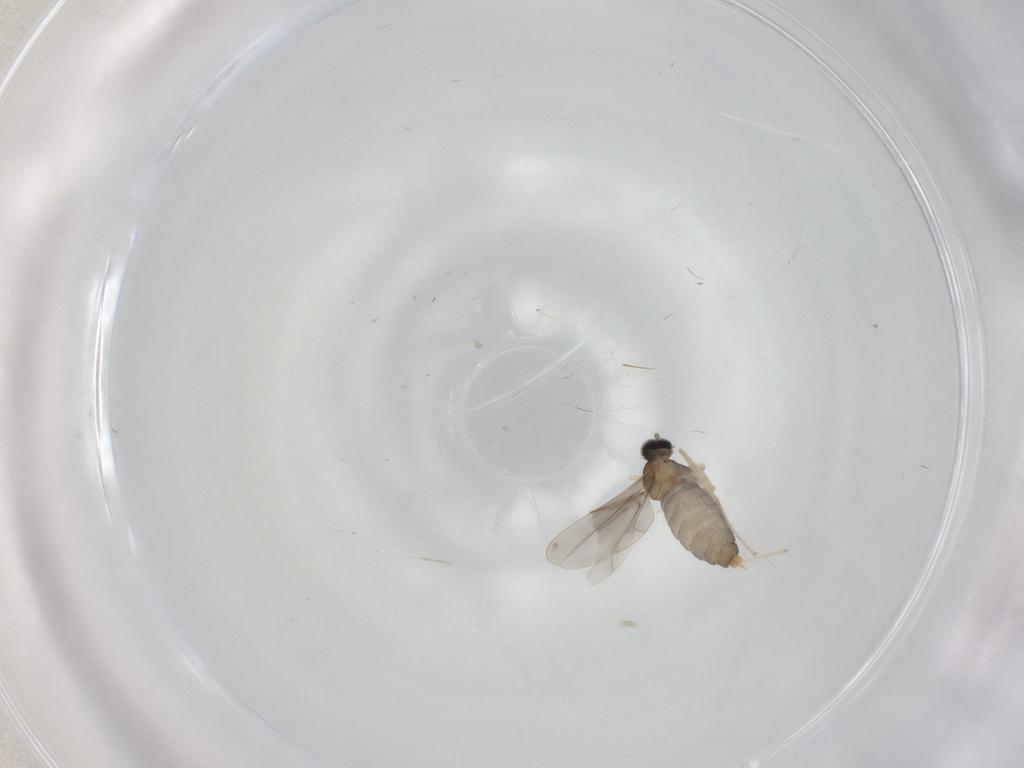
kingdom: Animalia
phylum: Arthropoda
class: Insecta
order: Diptera
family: Cecidomyiidae
